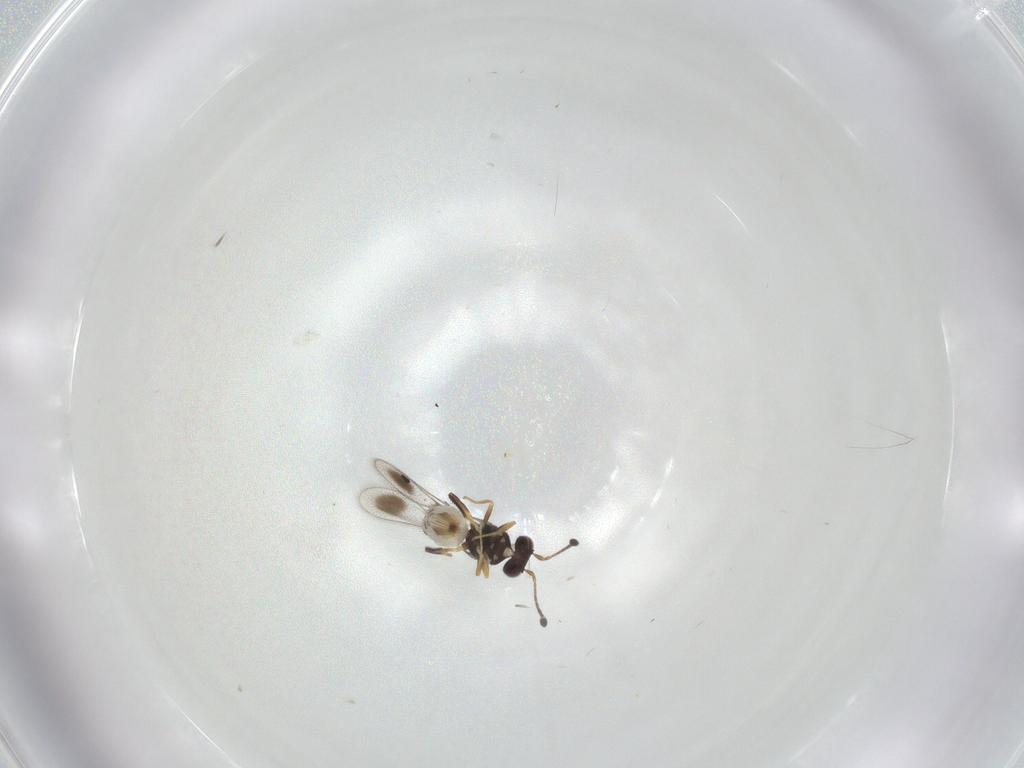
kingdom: Animalia
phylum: Arthropoda
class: Insecta
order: Hymenoptera
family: Mymaridae
